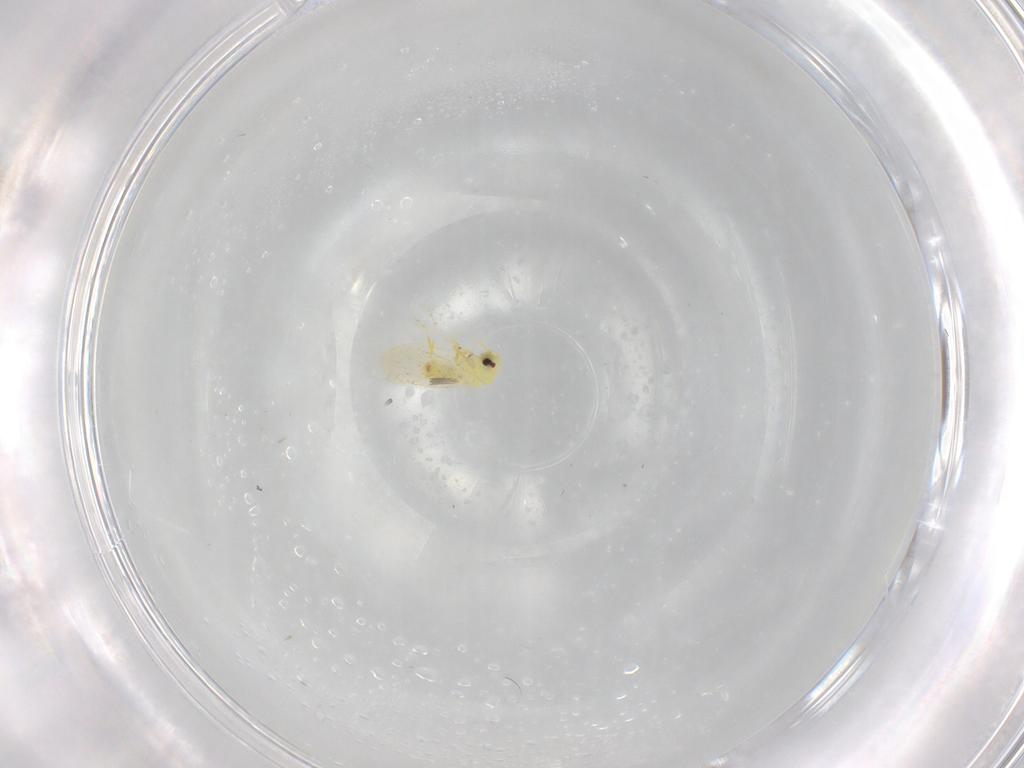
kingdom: Animalia
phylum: Arthropoda
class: Insecta
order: Hemiptera
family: Aleyrodidae
